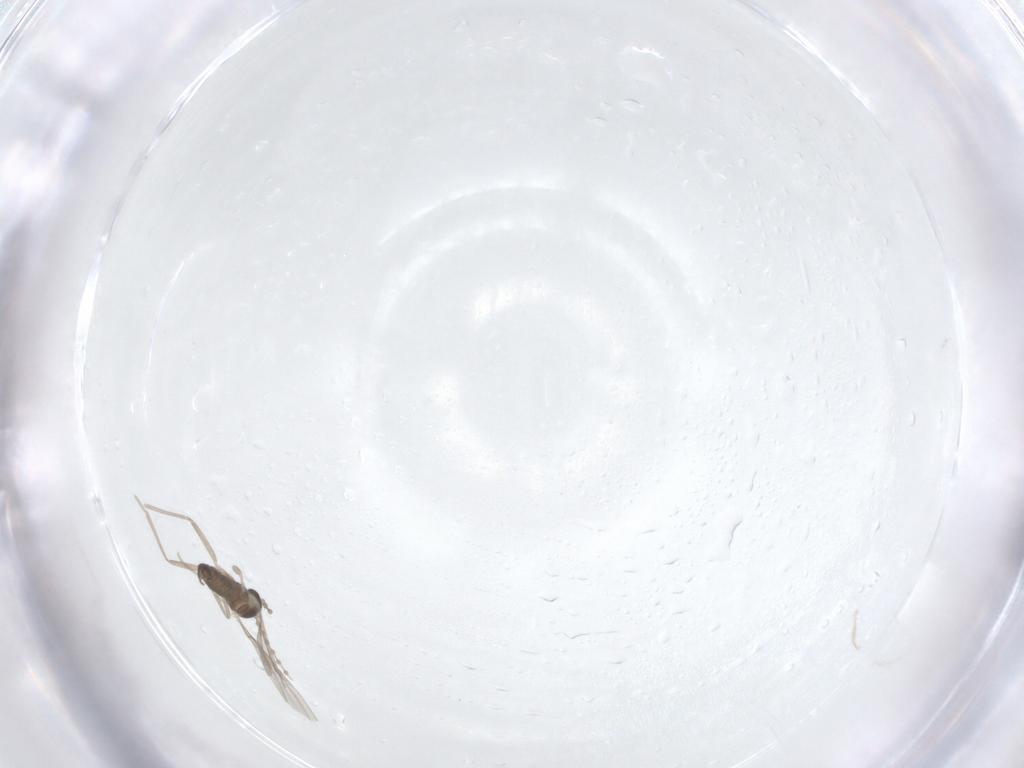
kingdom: Animalia
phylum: Arthropoda
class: Insecta
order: Diptera
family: Cecidomyiidae
